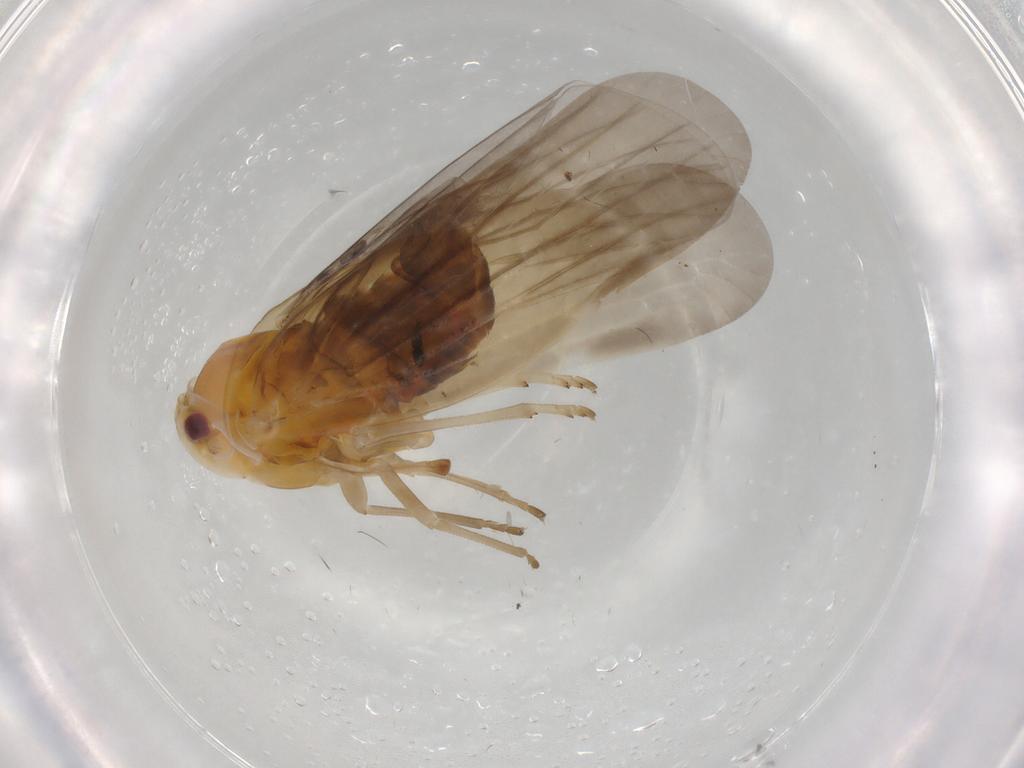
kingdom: Animalia
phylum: Arthropoda
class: Insecta
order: Hemiptera
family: Derbidae
